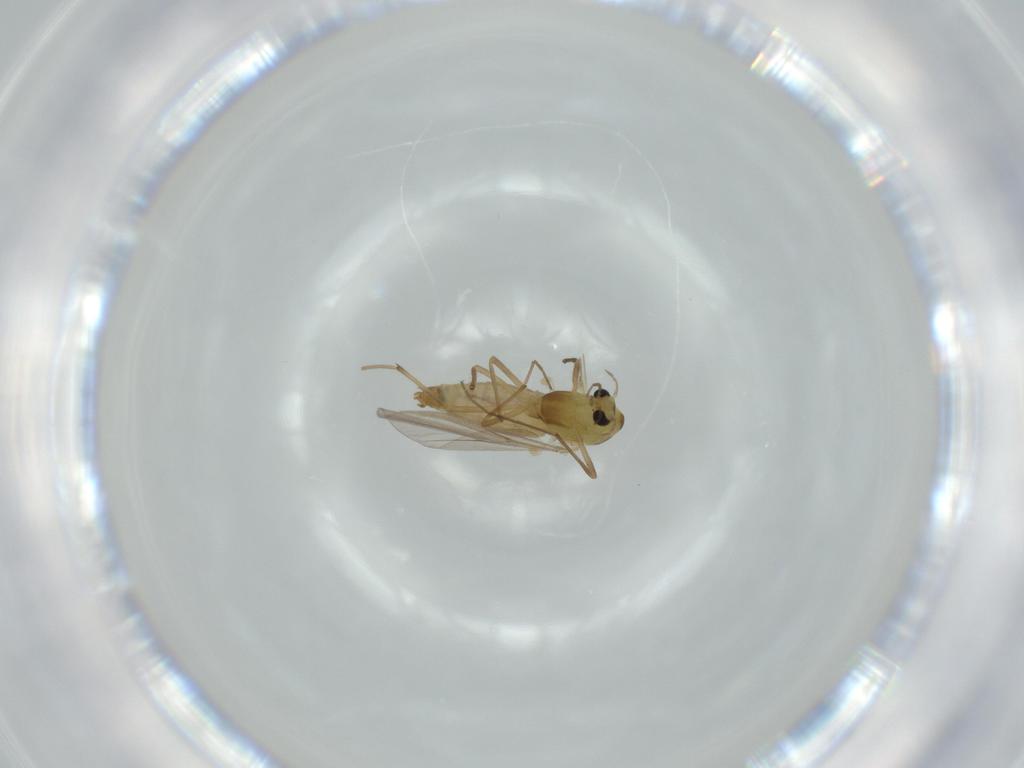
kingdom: Animalia
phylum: Arthropoda
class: Insecta
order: Diptera
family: Chironomidae
